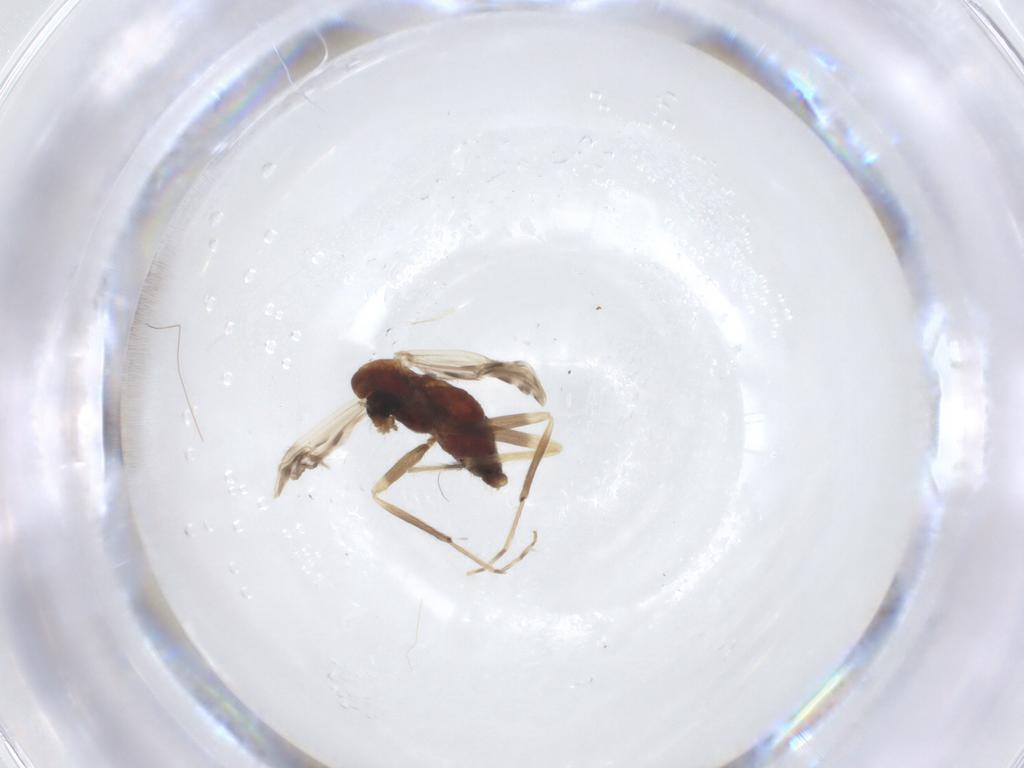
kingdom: Animalia
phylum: Arthropoda
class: Insecta
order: Diptera
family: Chironomidae
